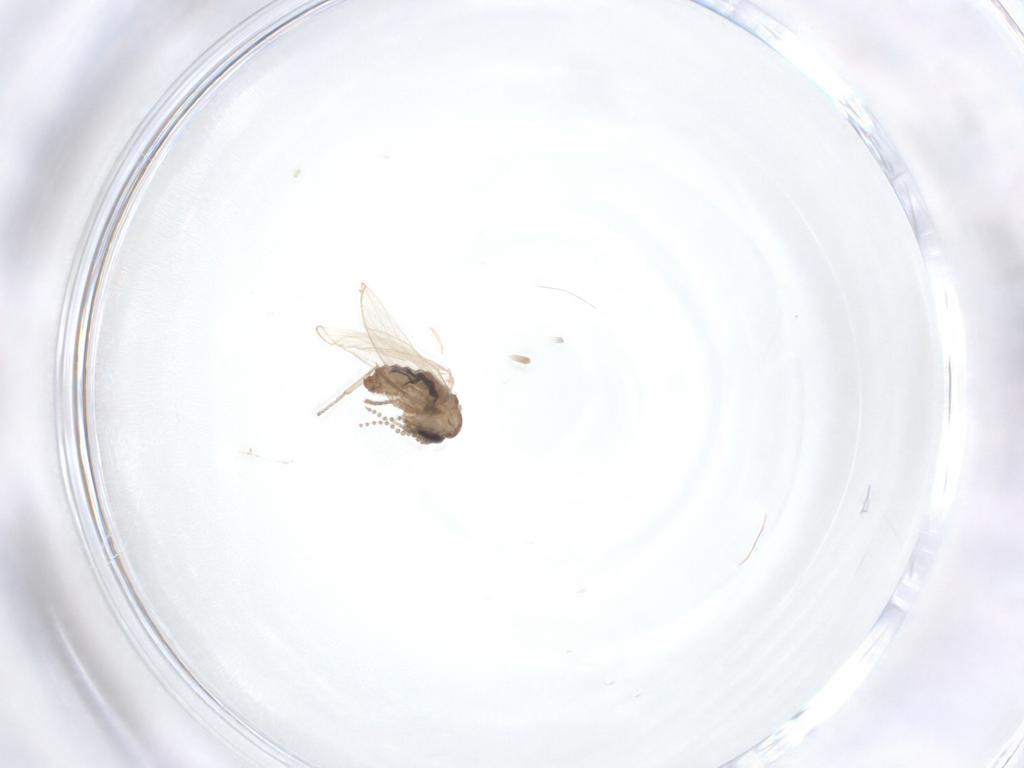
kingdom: Animalia
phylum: Arthropoda
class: Insecta
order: Diptera
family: Psychodidae
